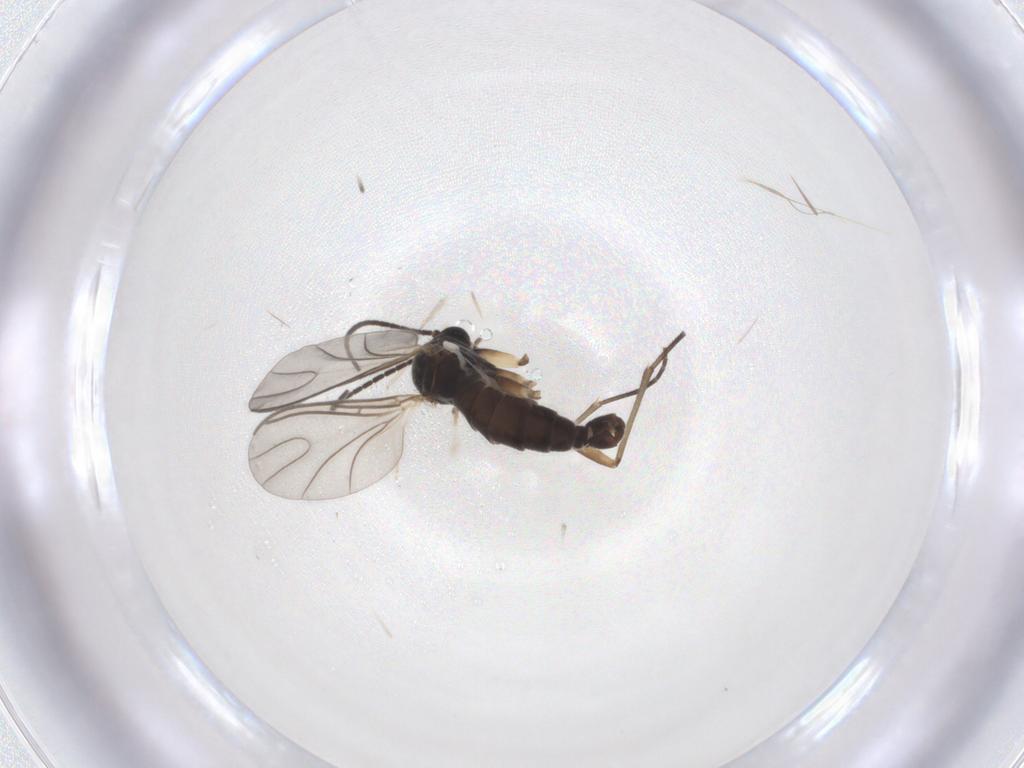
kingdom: Animalia
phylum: Arthropoda
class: Insecta
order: Diptera
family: Sciaridae
